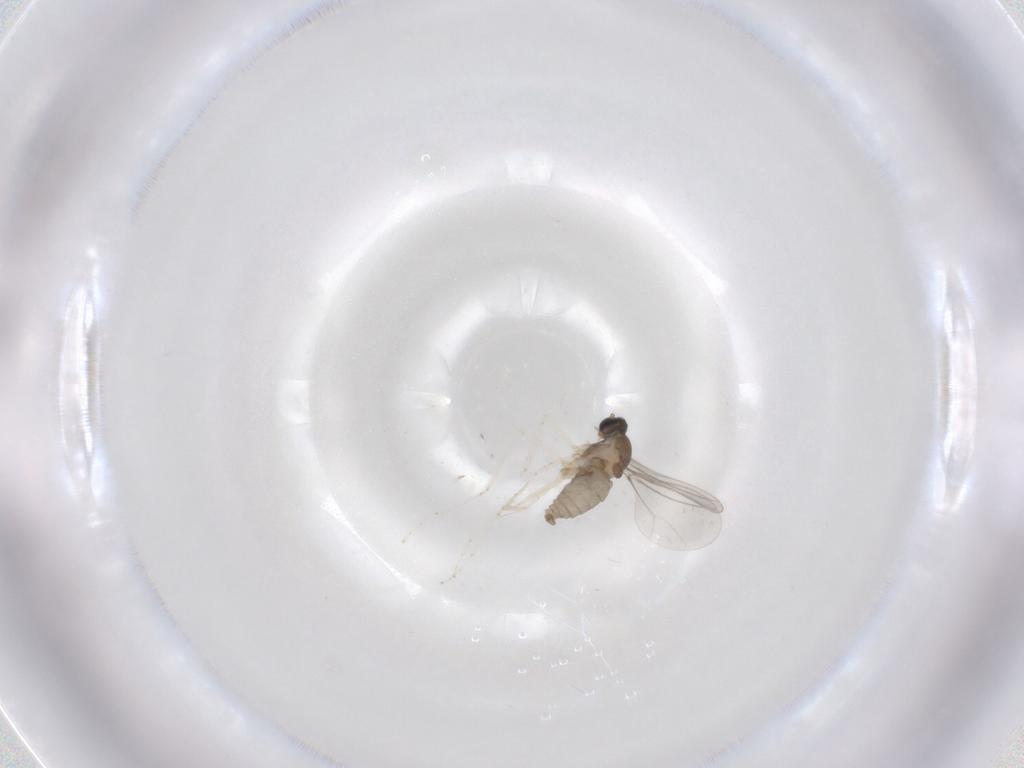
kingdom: Animalia
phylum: Arthropoda
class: Insecta
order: Diptera
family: Cecidomyiidae
